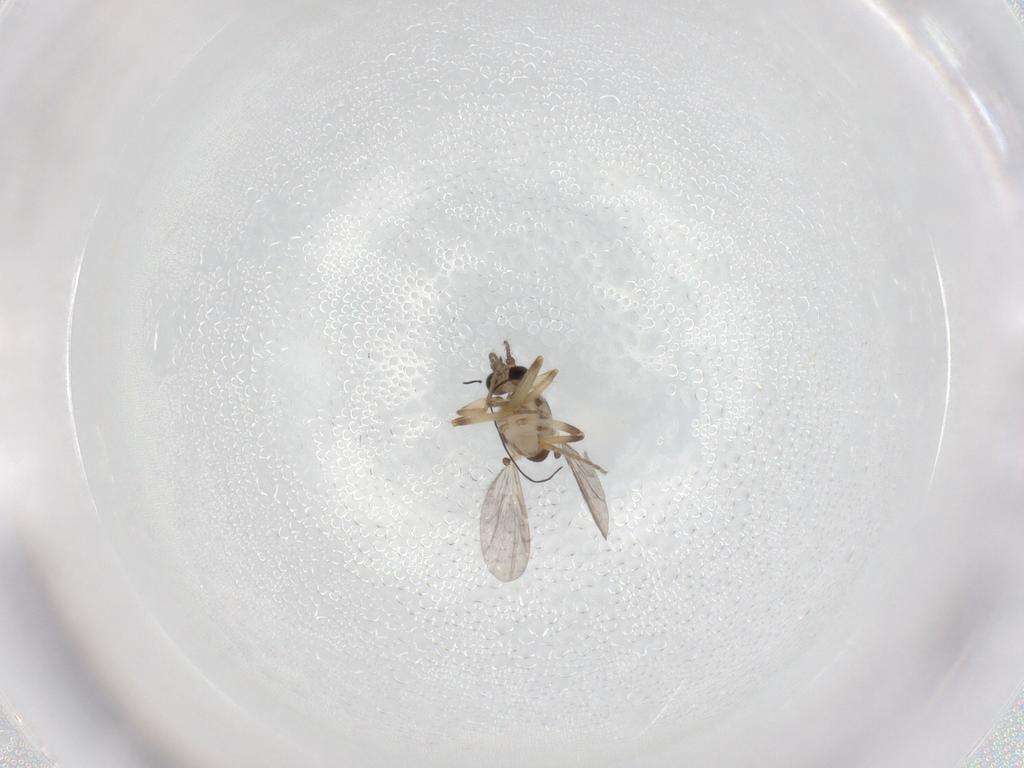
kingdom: Animalia
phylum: Arthropoda
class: Insecta
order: Diptera
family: Ceratopogonidae
